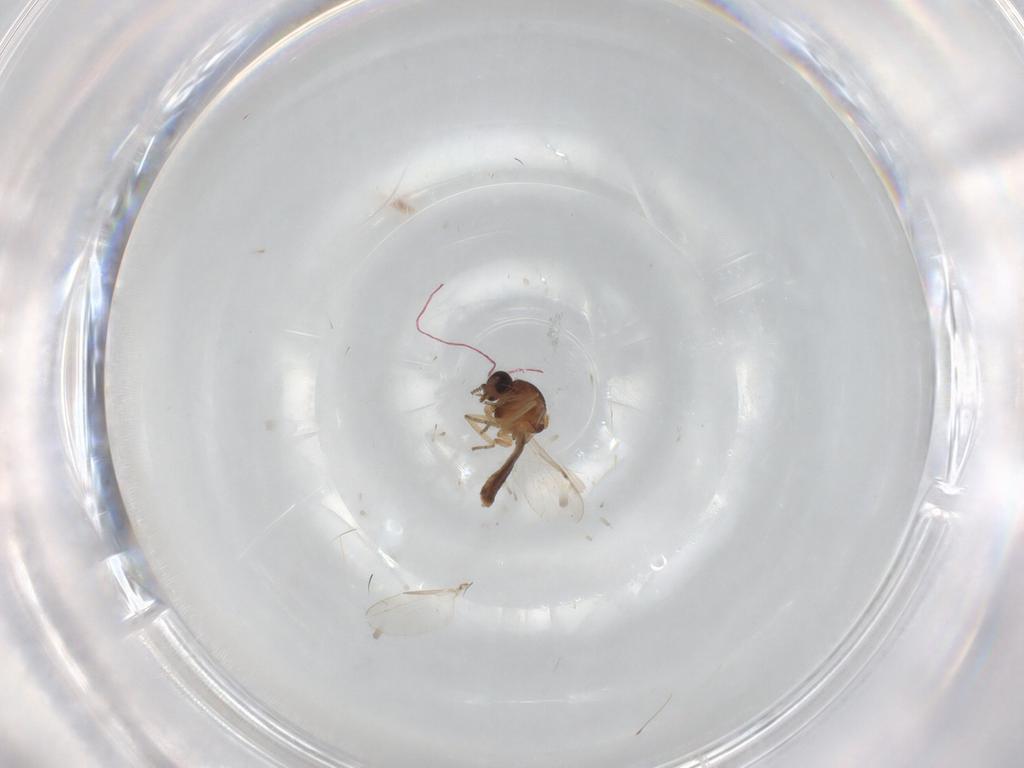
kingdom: Animalia
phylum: Arthropoda
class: Insecta
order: Diptera
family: Ceratopogonidae
